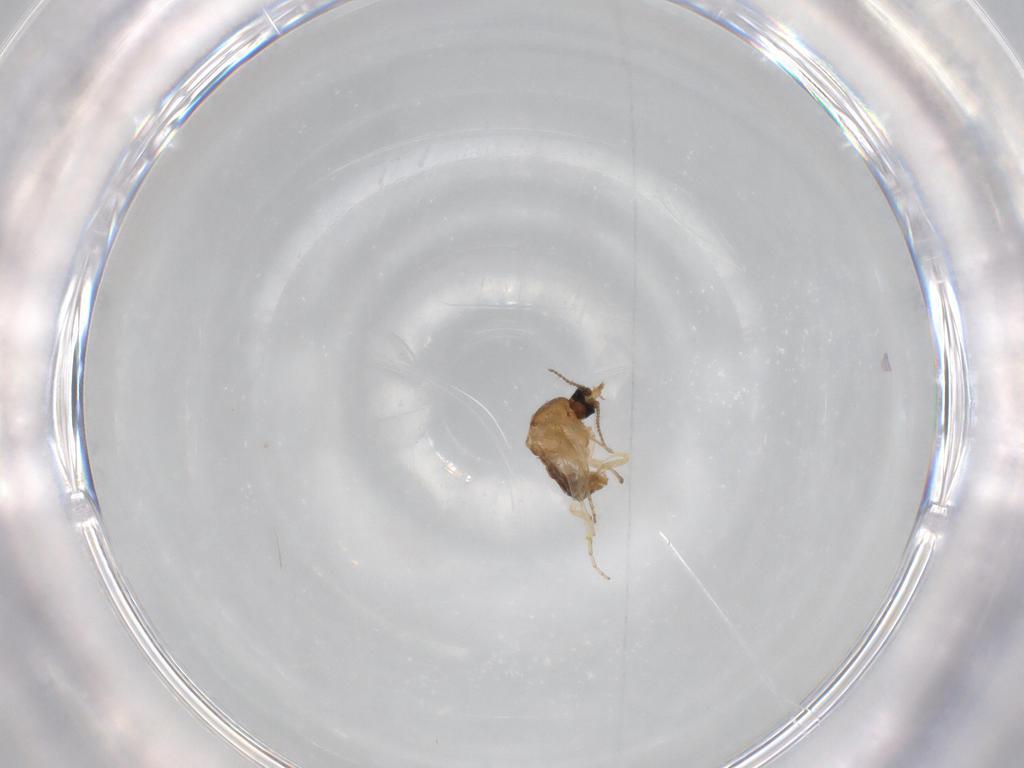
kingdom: Animalia
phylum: Arthropoda
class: Insecta
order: Diptera
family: Ceratopogonidae
